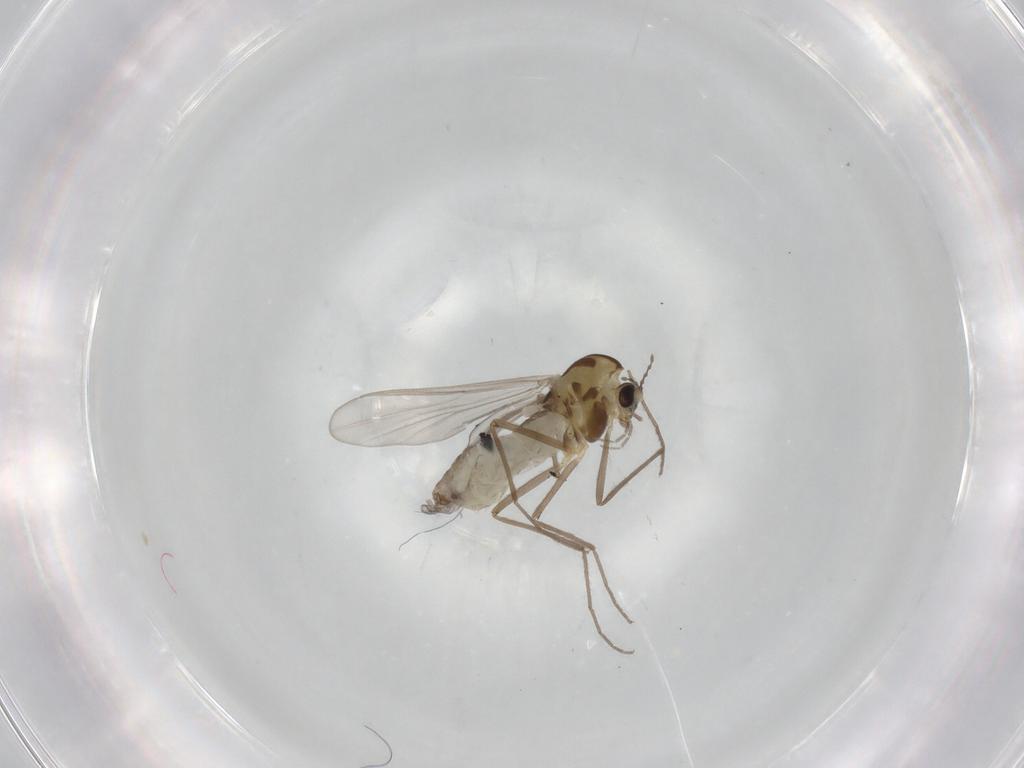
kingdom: Animalia
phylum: Arthropoda
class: Insecta
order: Diptera
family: Chironomidae
